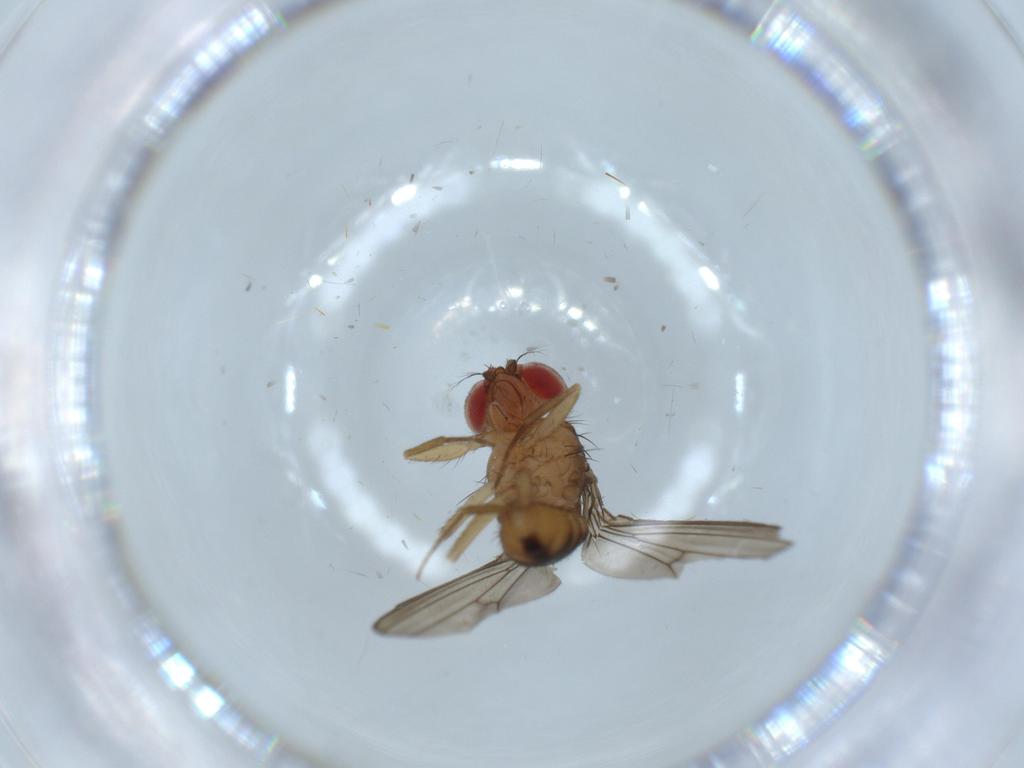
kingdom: Animalia
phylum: Arthropoda
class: Insecta
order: Diptera
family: Drosophilidae
